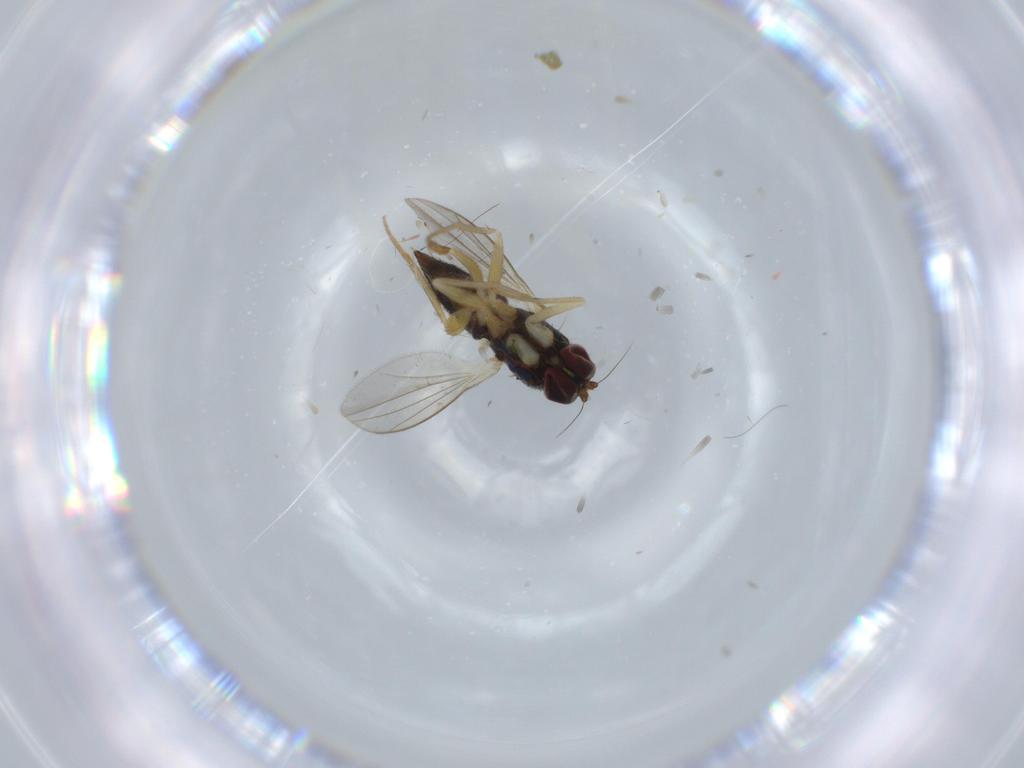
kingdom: Animalia
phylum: Arthropoda
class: Insecta
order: Diptera
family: Dolichopodidae
